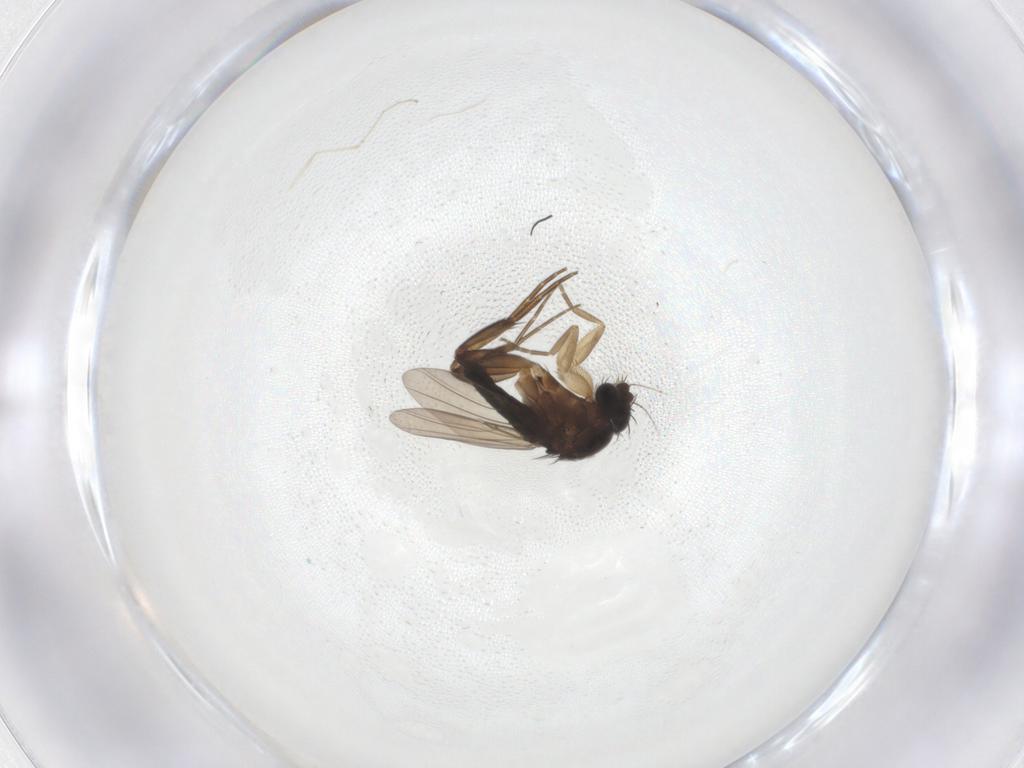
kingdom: Animalia
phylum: Arthropoda
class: Insecta
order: Diptera
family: Phoridae
